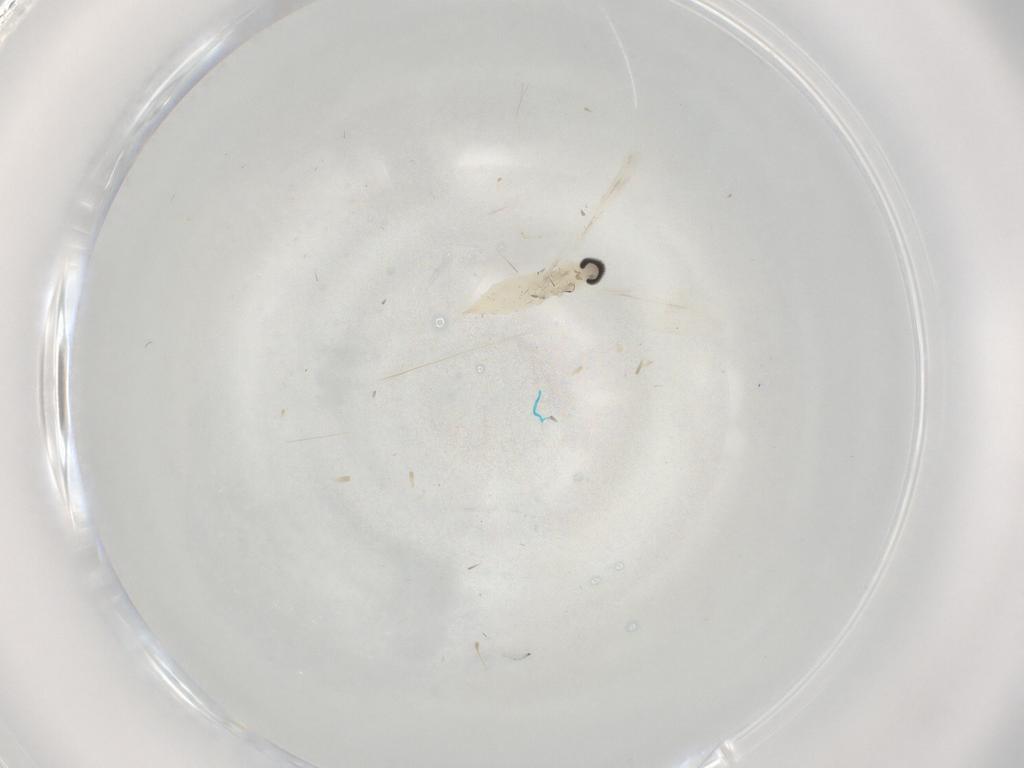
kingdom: Animalia
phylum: Arthropoda
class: Insecta
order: Diptera
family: Cecidomyiidae
